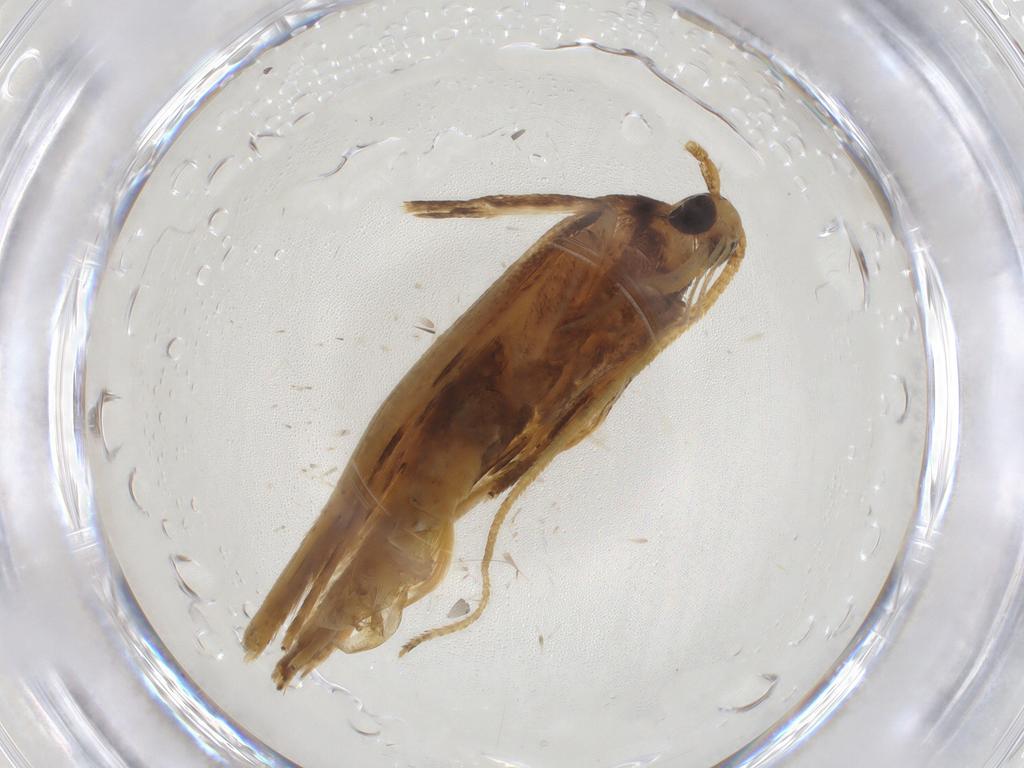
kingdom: Animalia
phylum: Arthropoda
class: Insecta
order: Lepidoptera
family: Lecithoceridae
